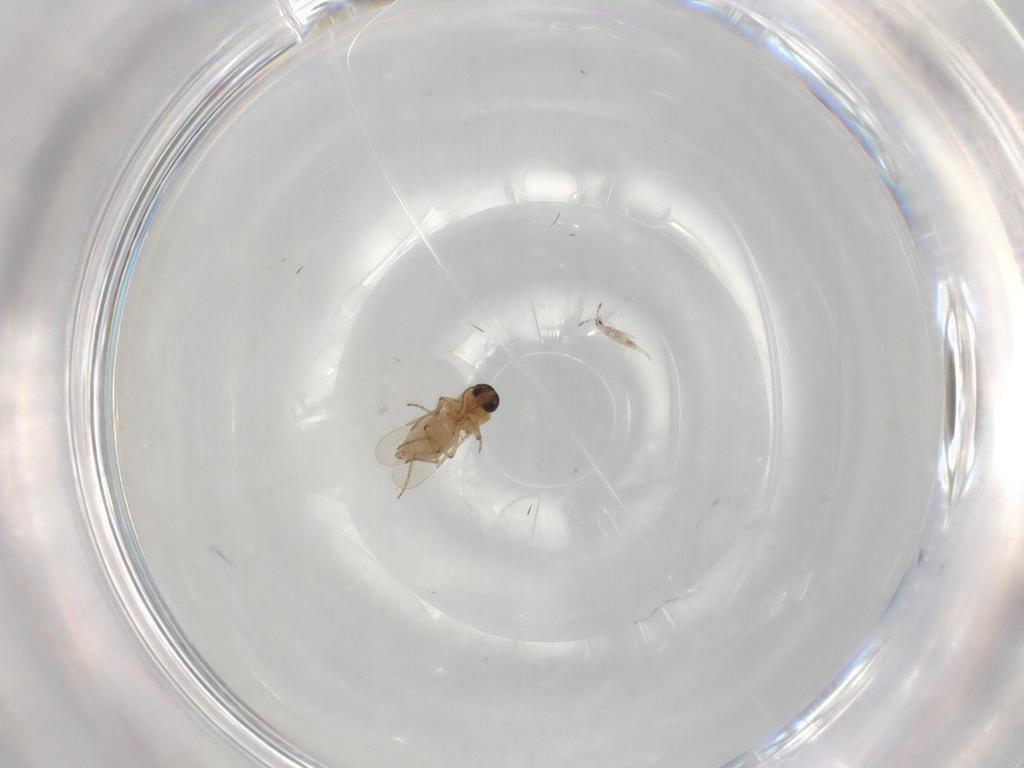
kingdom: Animalia
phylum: Arthropoda
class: Insecta
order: Diptera
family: Ceratopogonidae
